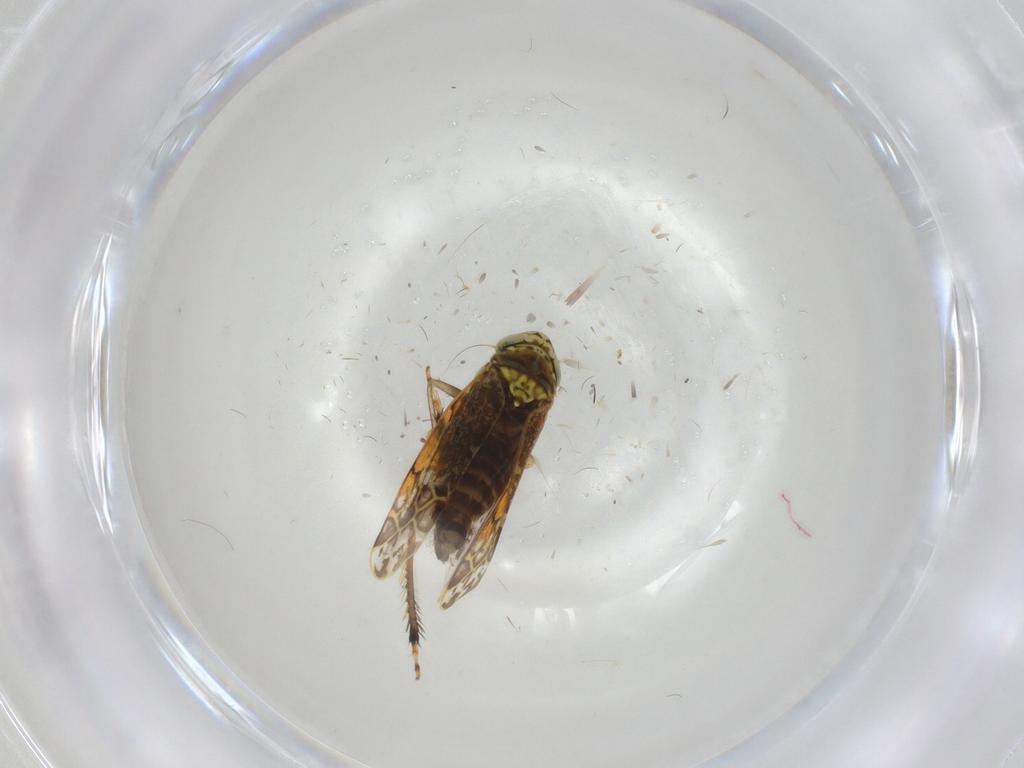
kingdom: Animalia
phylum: Arthropoda
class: Insecta
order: Hemiptera
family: Cicadellidae
